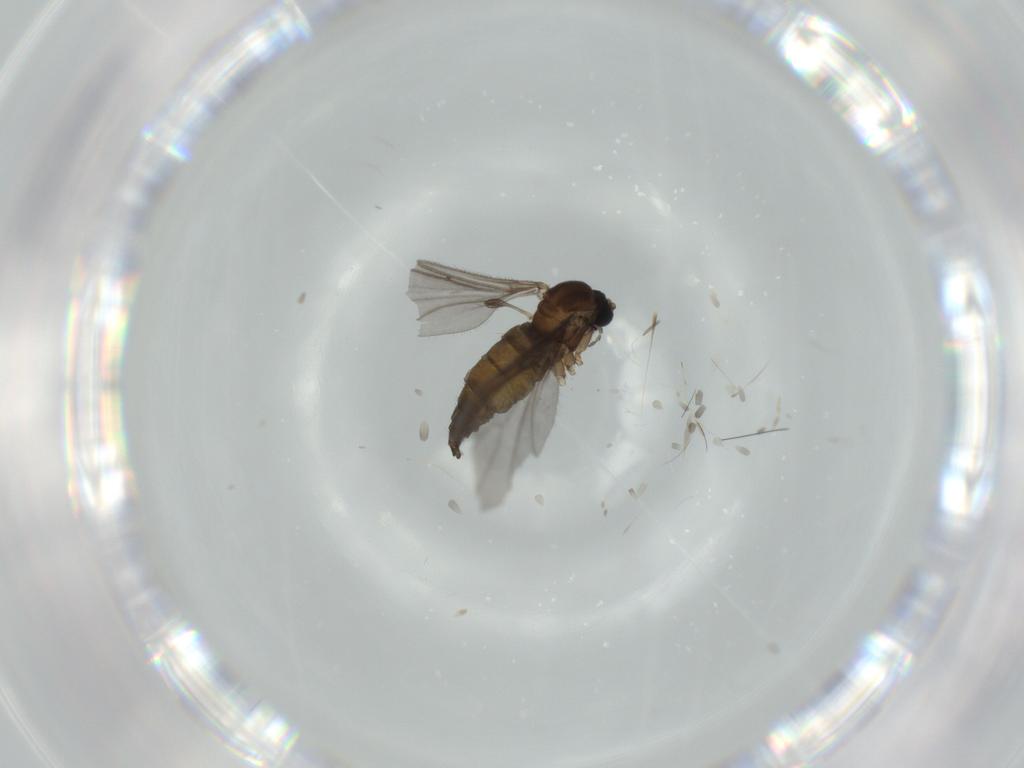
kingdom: Animalia
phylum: Arthropoda
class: Insecta
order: Diptera
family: Sciaridae
